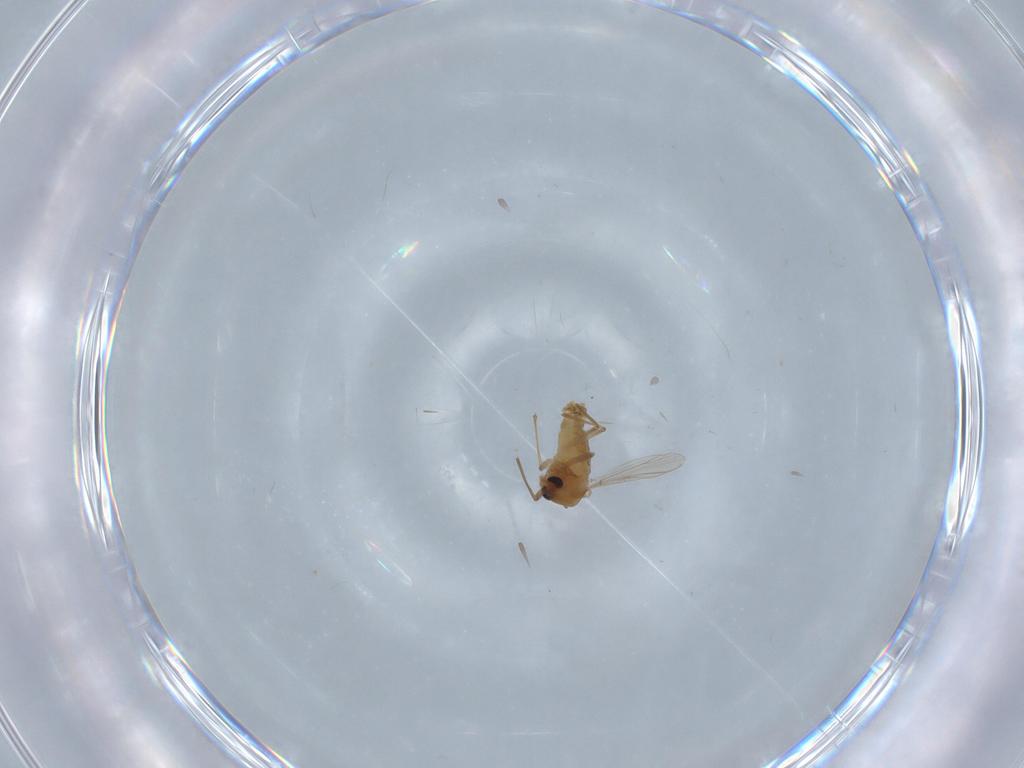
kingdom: Animalia
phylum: Arthropoda
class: Insecta
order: Diptera
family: Chironomidae
